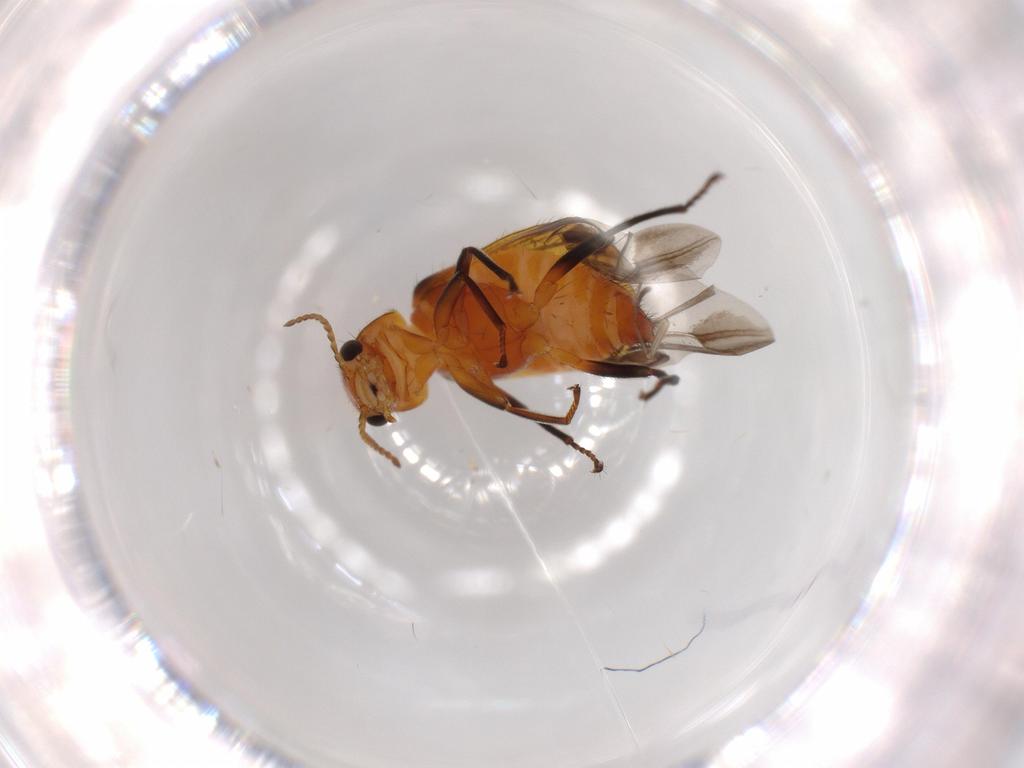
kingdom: Animalia
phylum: Arthropoda
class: Insecta
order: Coleoptera
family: Melyridae
